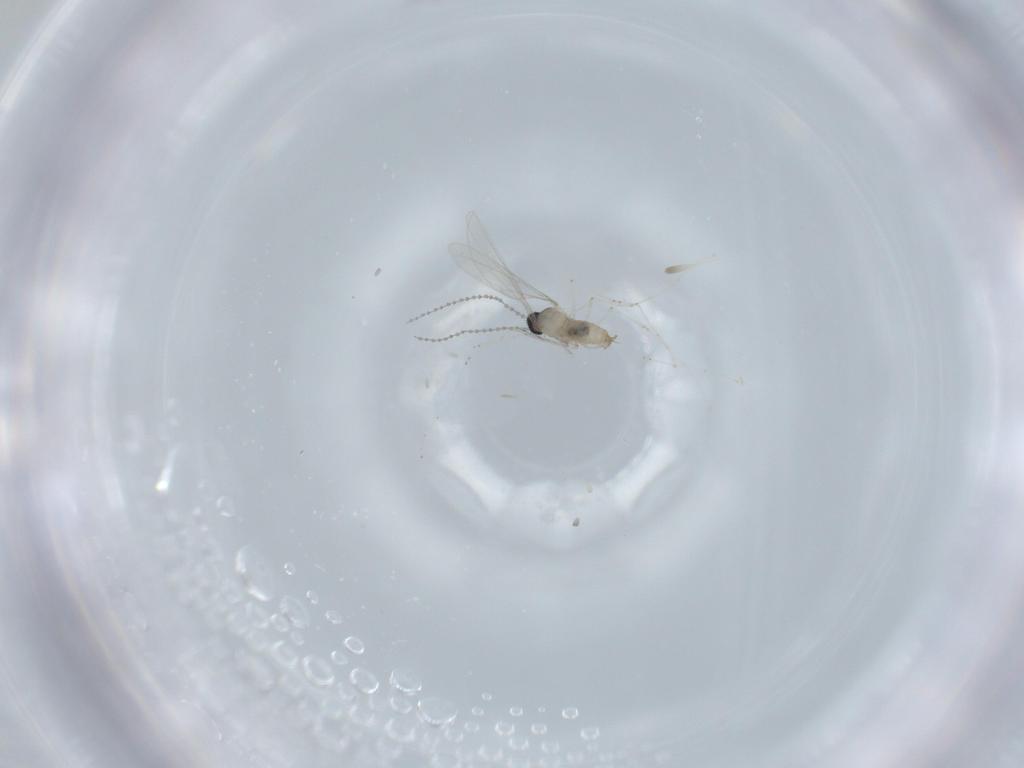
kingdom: Animalia
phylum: Arthropoda
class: Insecta
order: Diptera
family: Cecidomyiidae
